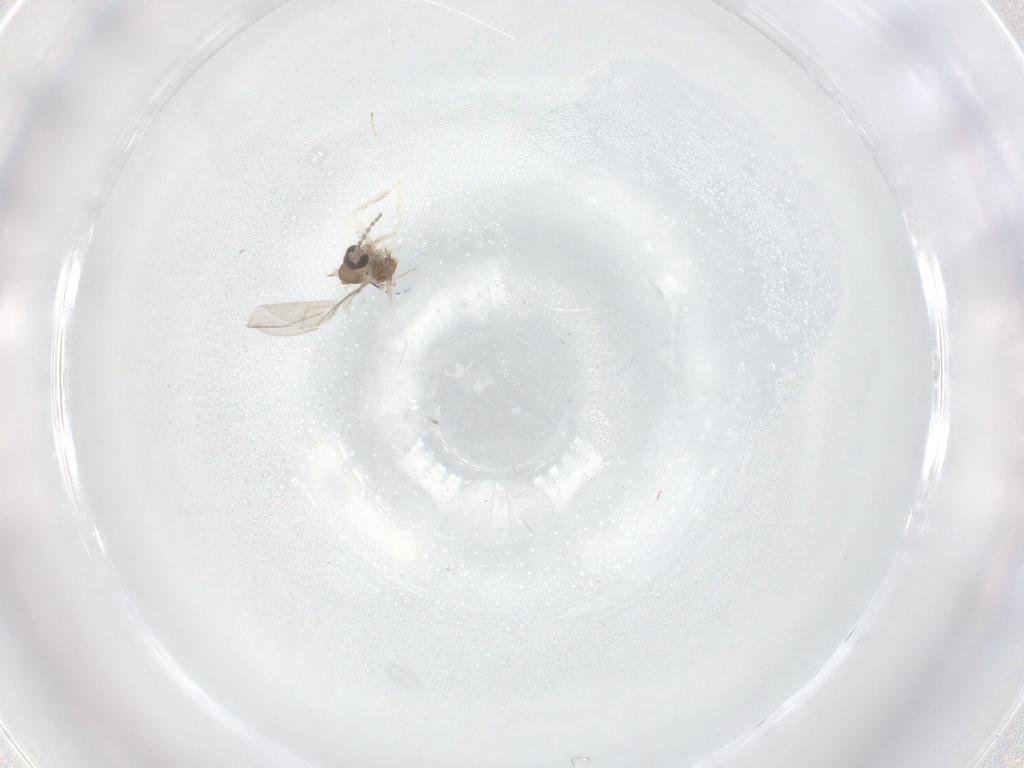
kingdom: Animalia
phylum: Arthropoda
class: Insecta
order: Diptera
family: Cecidomyiidae
